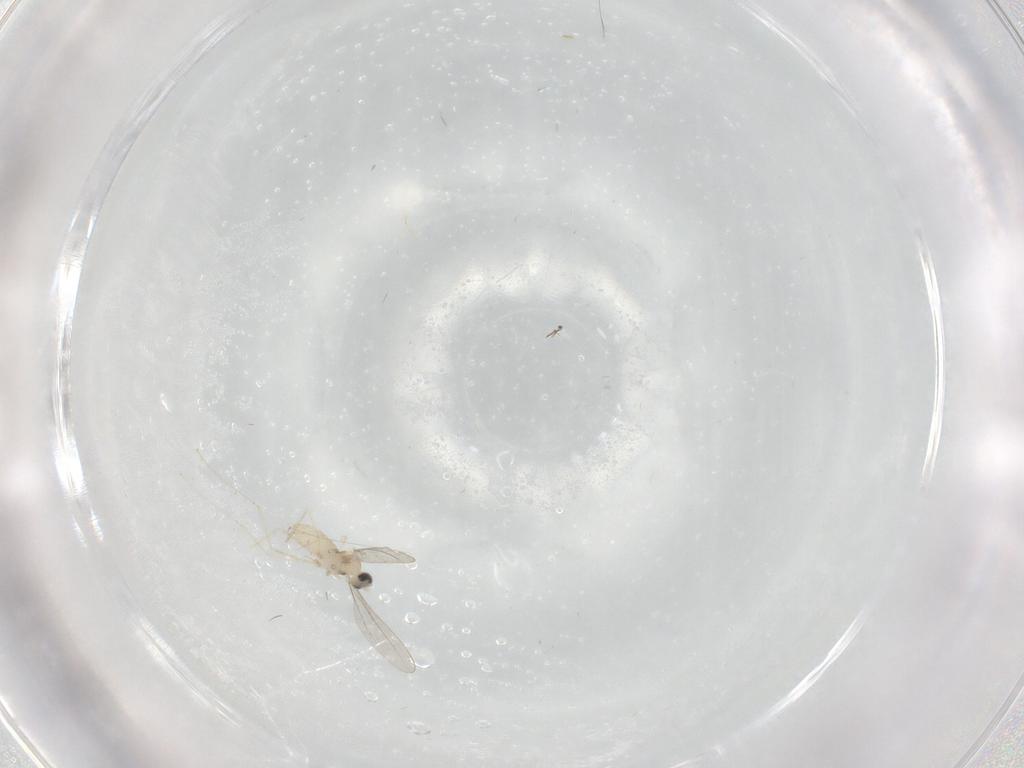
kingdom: Animalia
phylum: Arthropoda
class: Insecta
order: Diptera
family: Cecidomyiidae
